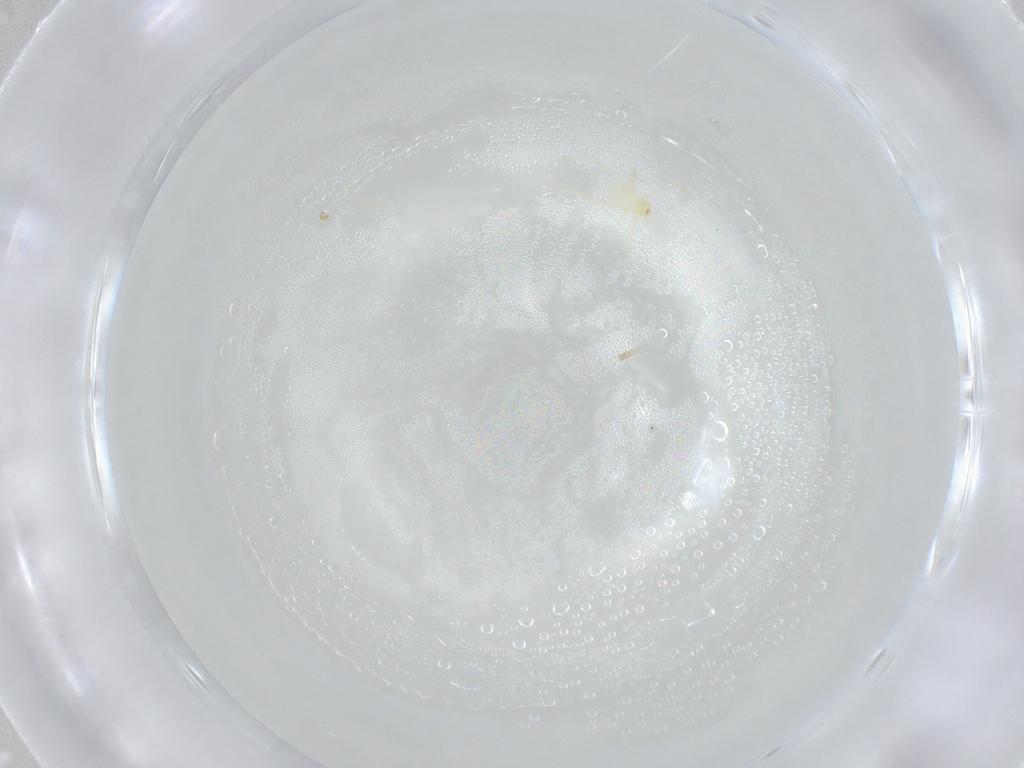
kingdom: Animalia
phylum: Arthropoda
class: Arachnida
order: Trombidiformes
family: Erythraeidae
